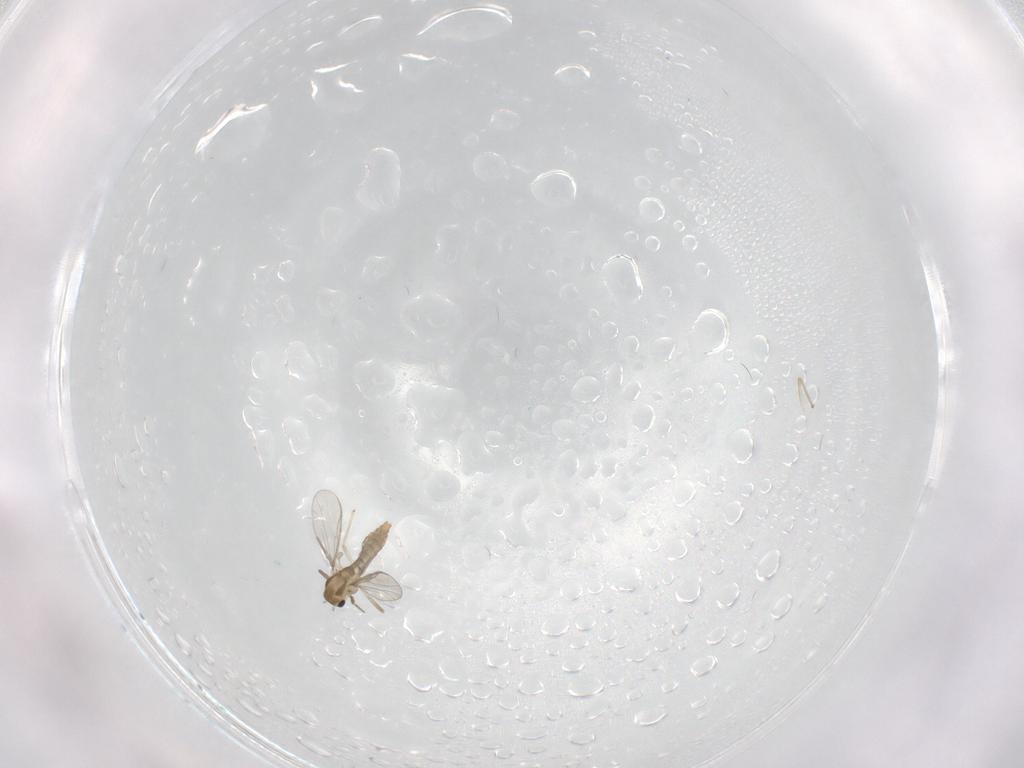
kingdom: Animalia
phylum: Arthropoda
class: Insecta
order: Diptera
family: Chironomidae
